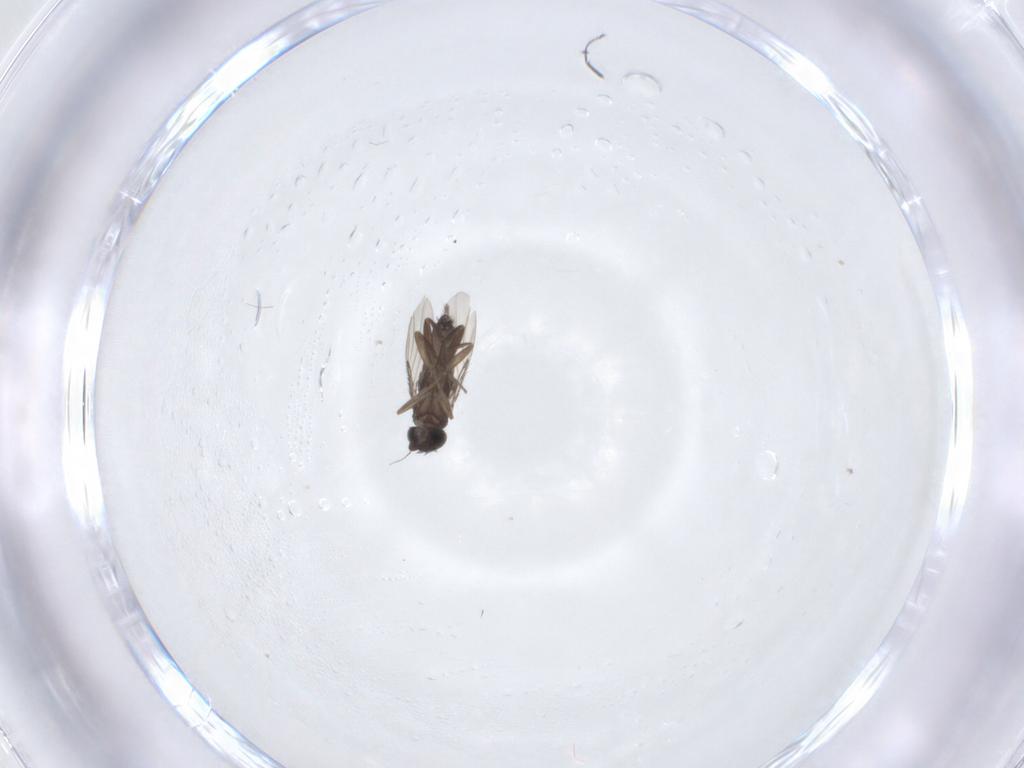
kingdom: Animalia
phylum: Arthropoda
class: Insecta
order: Diptera
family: Phoridae
